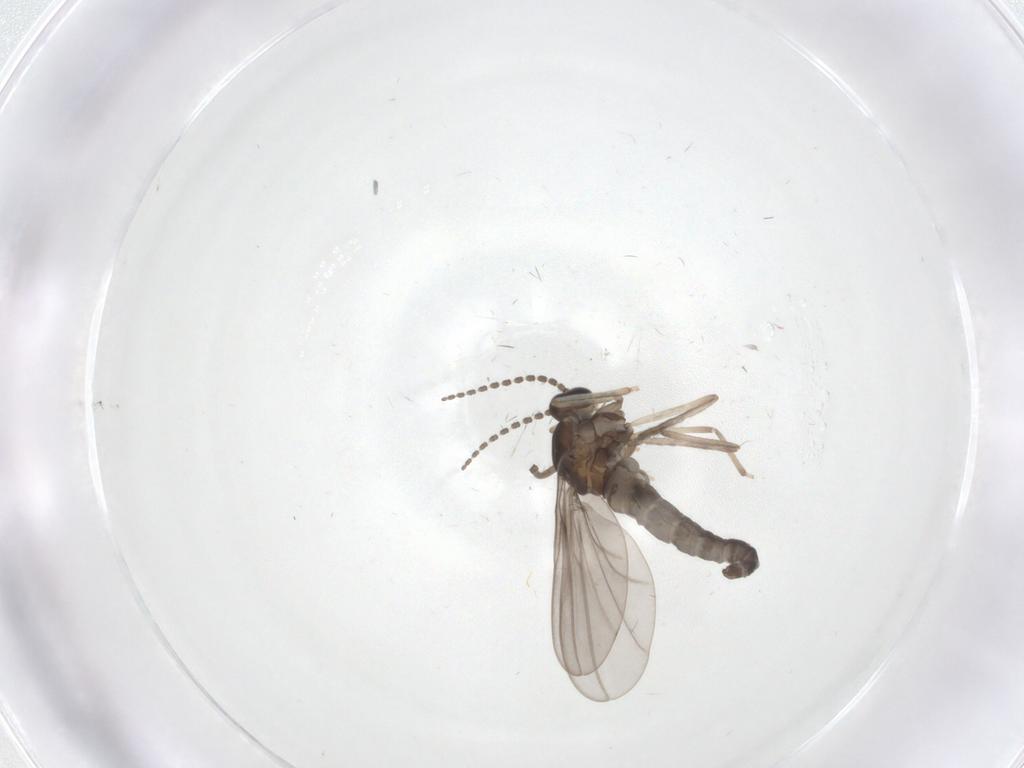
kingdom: Animalia
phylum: Arthropoda
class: Insecta
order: Diptera
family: Cecidomyiidae
